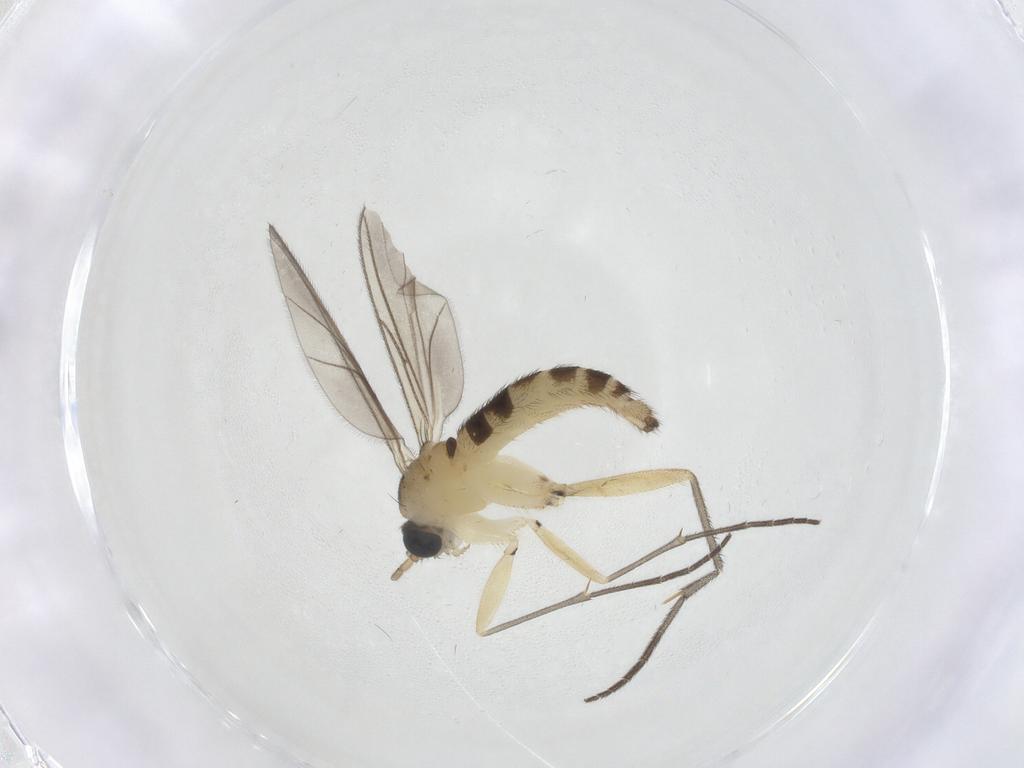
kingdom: Animalia
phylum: Arthropoda
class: Insecta
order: Diptera
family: Sciaridae
